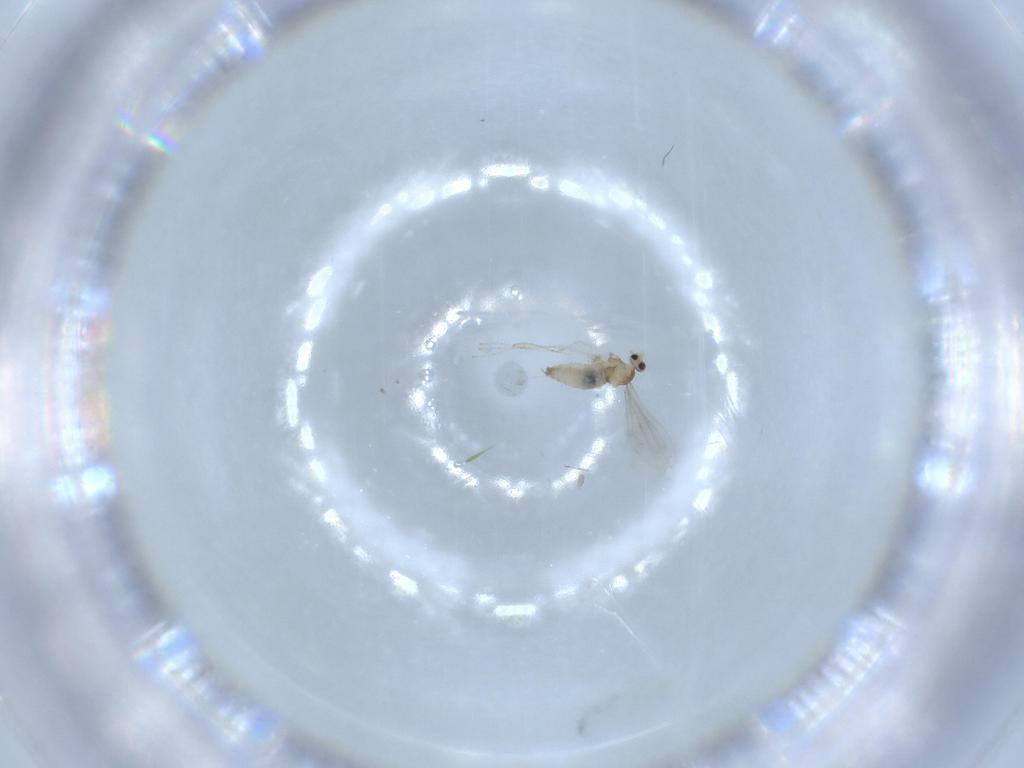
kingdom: Animalia
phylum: Arthropoda
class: Insecta
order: Diptera
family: Cecidomyiidae
